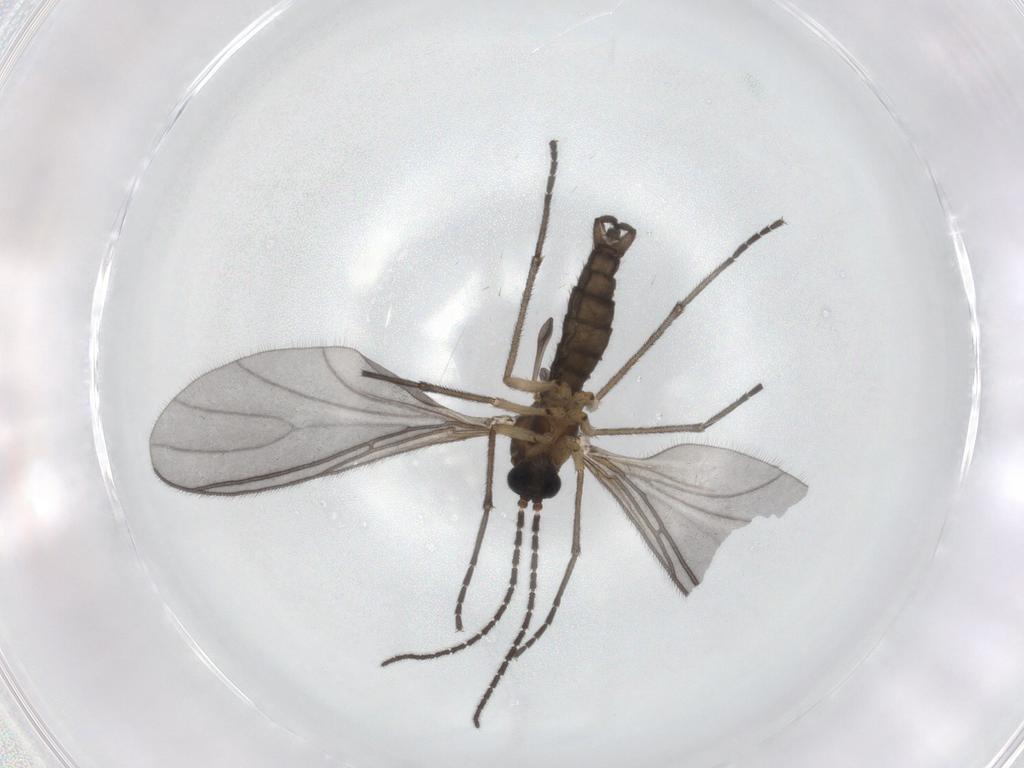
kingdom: Animalia
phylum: Arthropoda
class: Insecta
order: Diptera
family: Sciaridae
